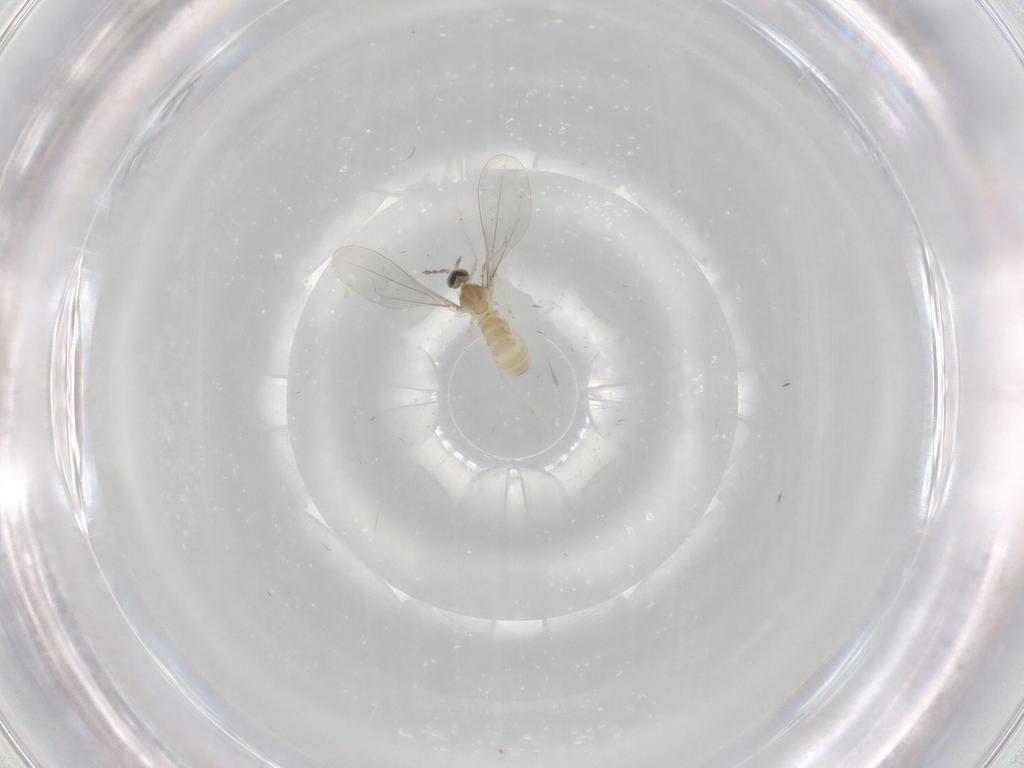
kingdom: Animalia
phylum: Arthropoda
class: Insecta
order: Diptera
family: Cecidomyiidae
